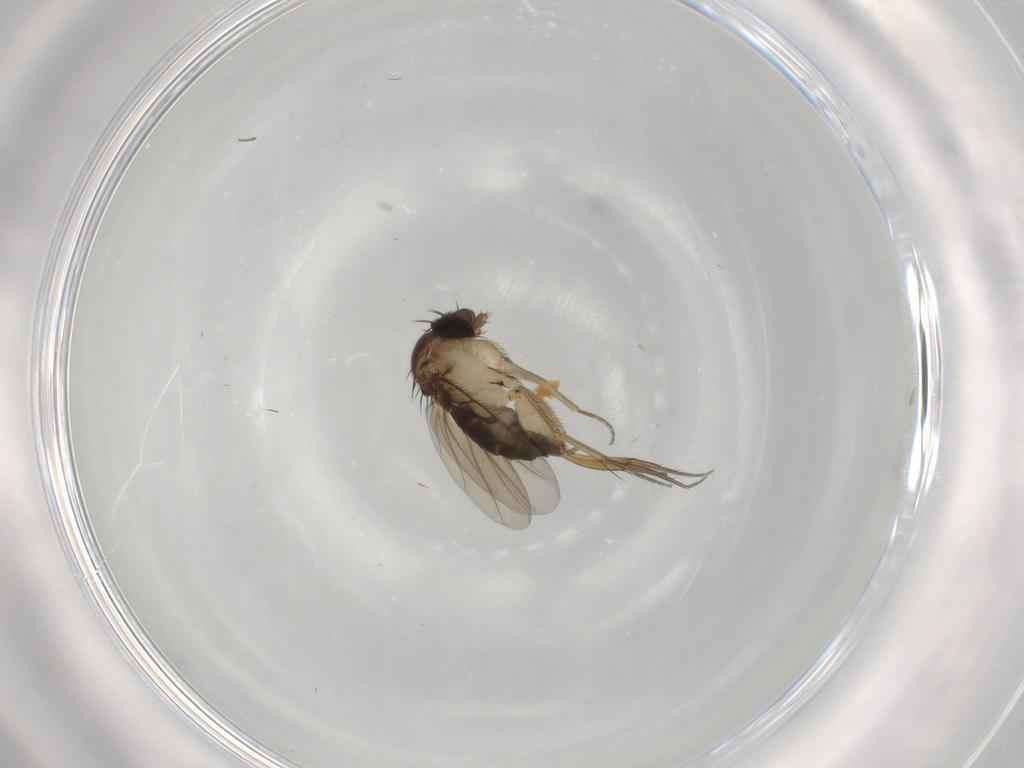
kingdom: Animalia
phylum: Arthropoda
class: Insecta
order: Diptera
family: Phoridae
